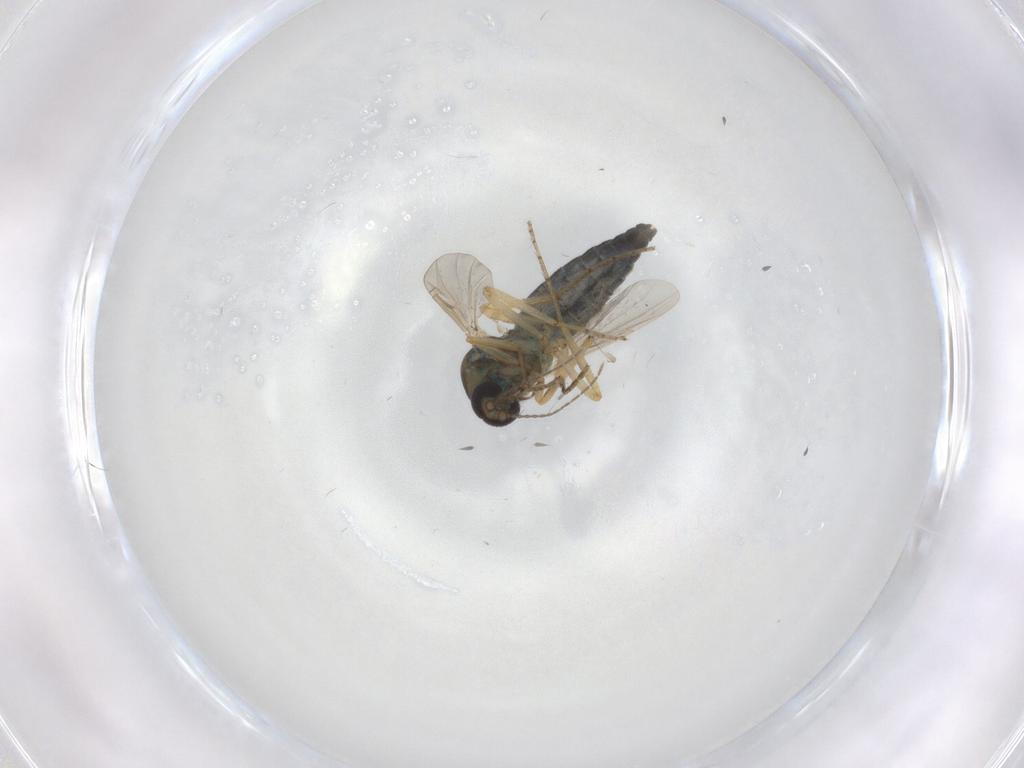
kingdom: Animalia
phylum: Arthropoda
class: Insecta
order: Diptera
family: Ceratopogonidae
